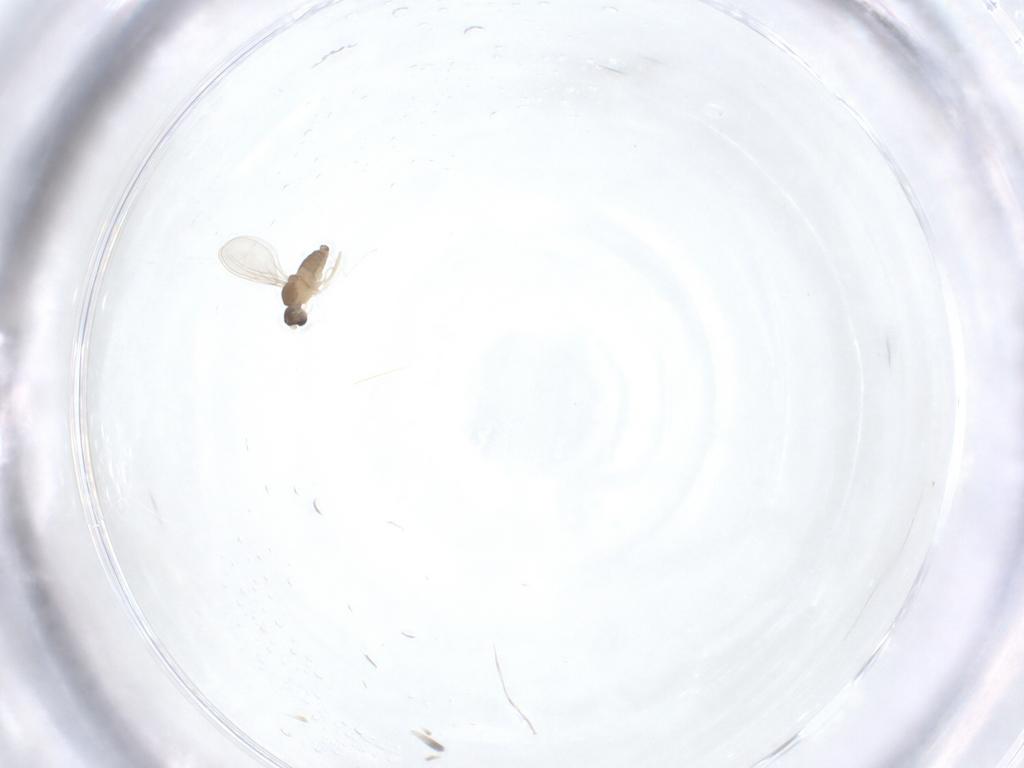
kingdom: Animalia
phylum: Arthropoda
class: Insecta
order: Diptera
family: Cecidomyiidae
